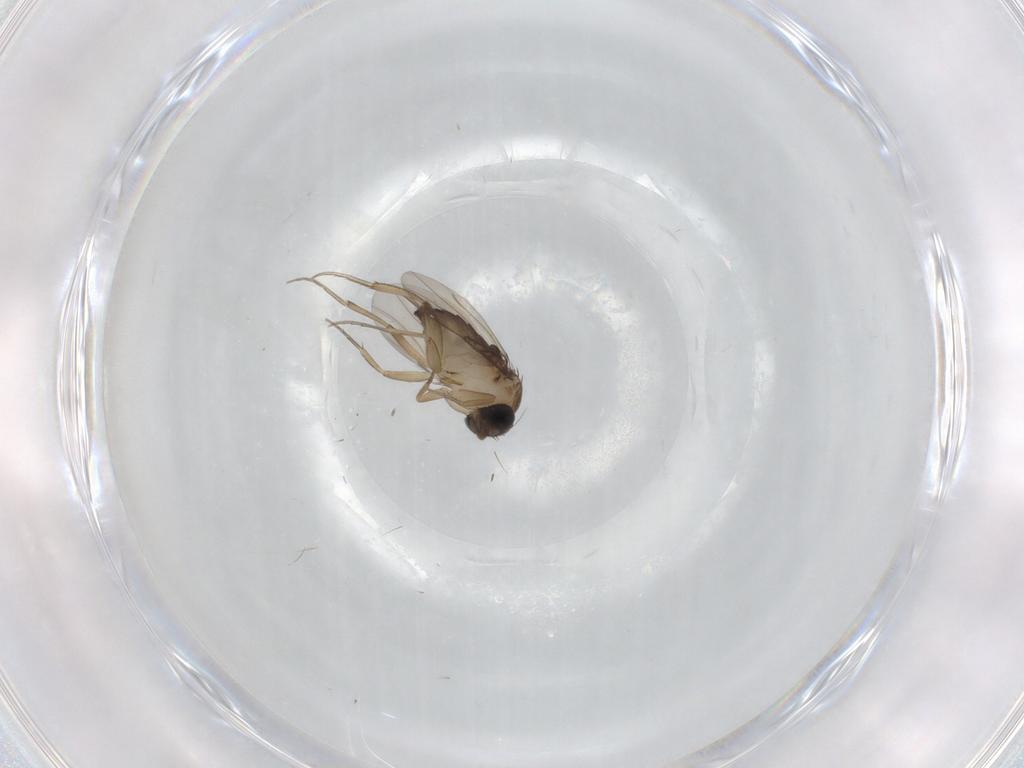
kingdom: Animalia
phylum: Arthropoda
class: Insecta
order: Diptera
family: Phoridae
